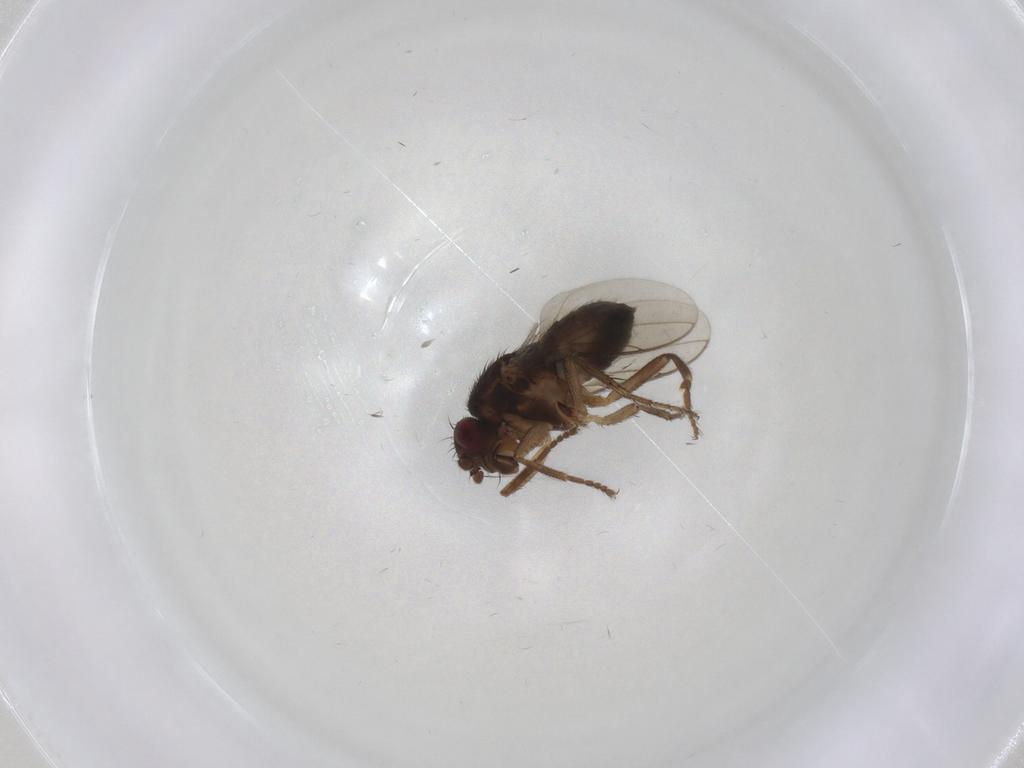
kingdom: Animalia
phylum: Arthropoda
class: Insecta
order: Diptera
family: Sphaeroceridae
